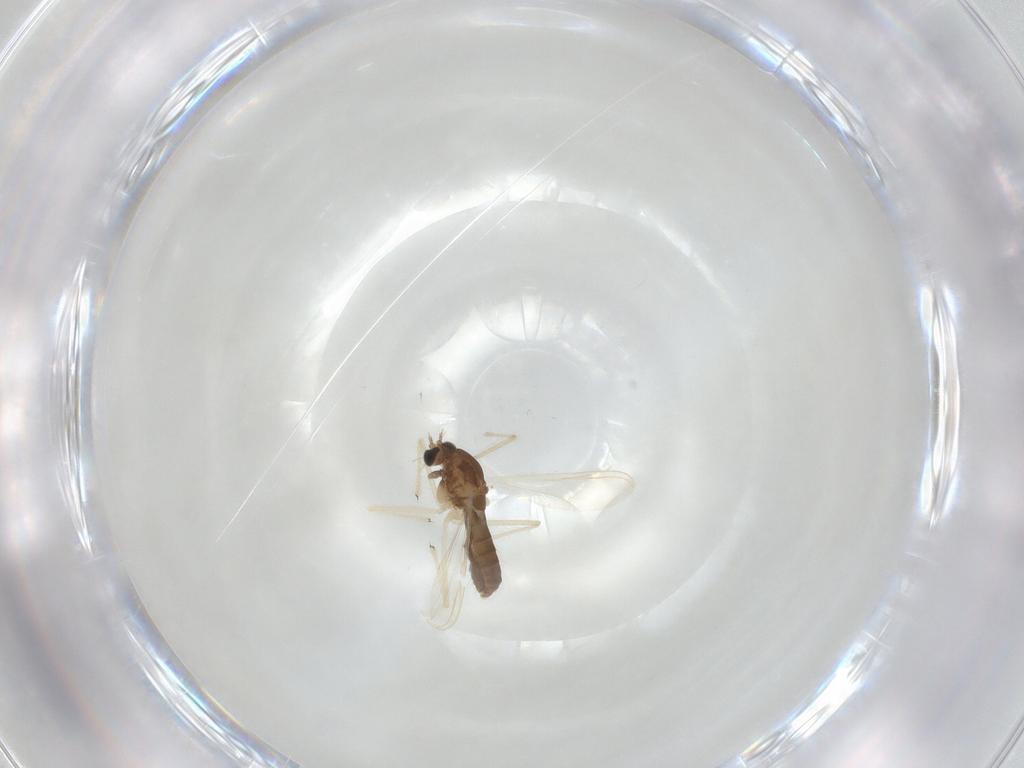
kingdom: Animalia
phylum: Arthropoda
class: Insecta
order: Diptera
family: Chironomidae
